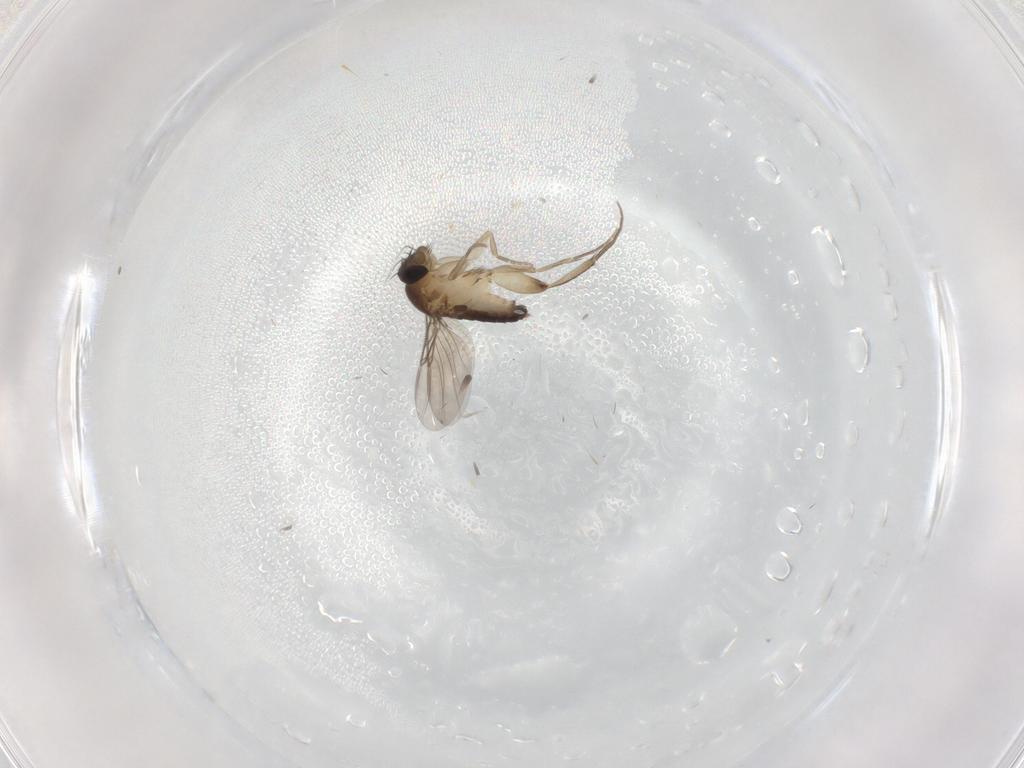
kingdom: Animalia
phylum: Arthropoda
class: Insecta
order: Diptera
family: Phoridae
